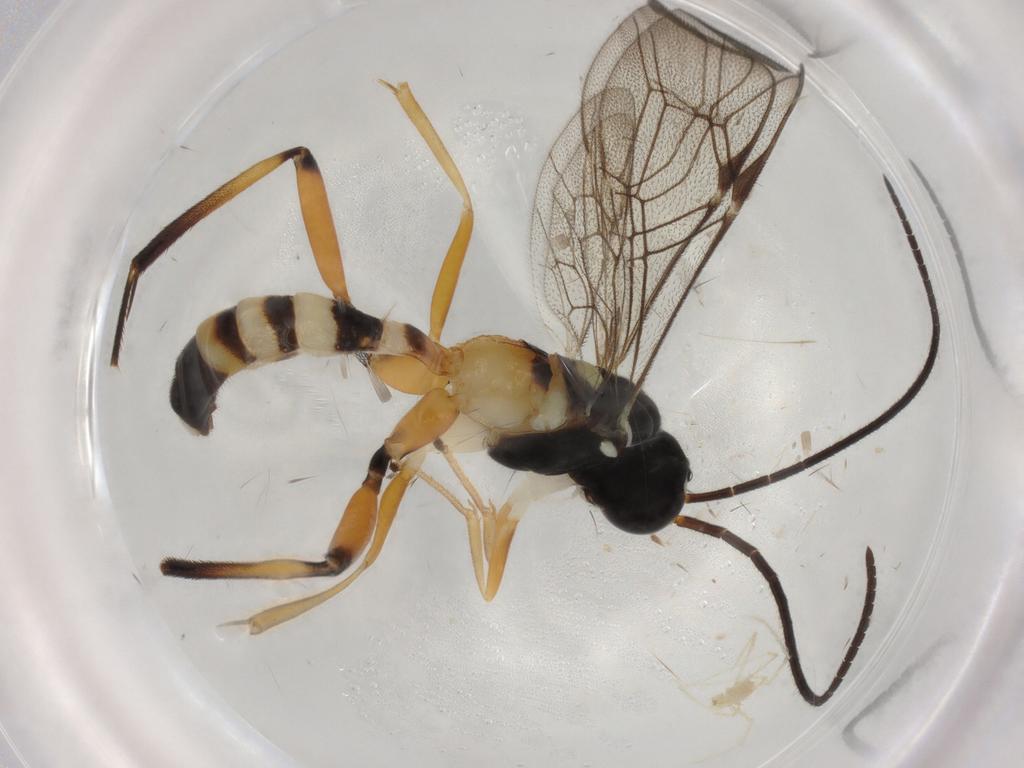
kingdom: Animalia
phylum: Arthropoda
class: Insecta
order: Hymenoptera
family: Ichneumonidae
